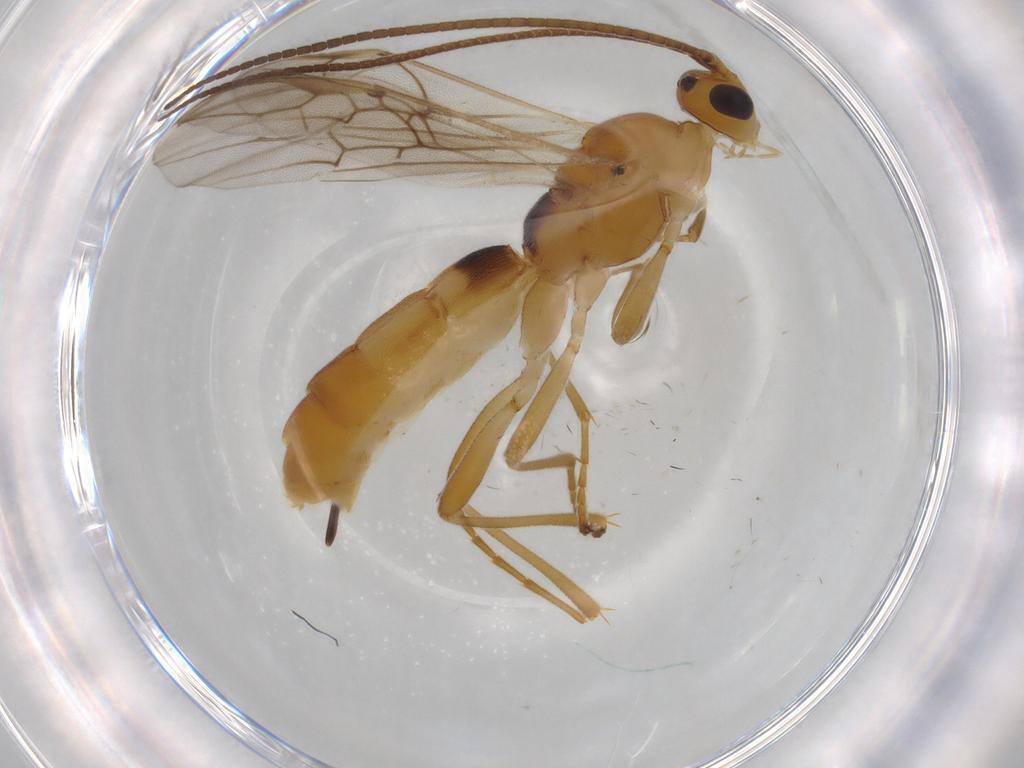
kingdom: Animalia
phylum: Arthropoda
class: Insecta
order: Hymenoptera
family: Braconidae
